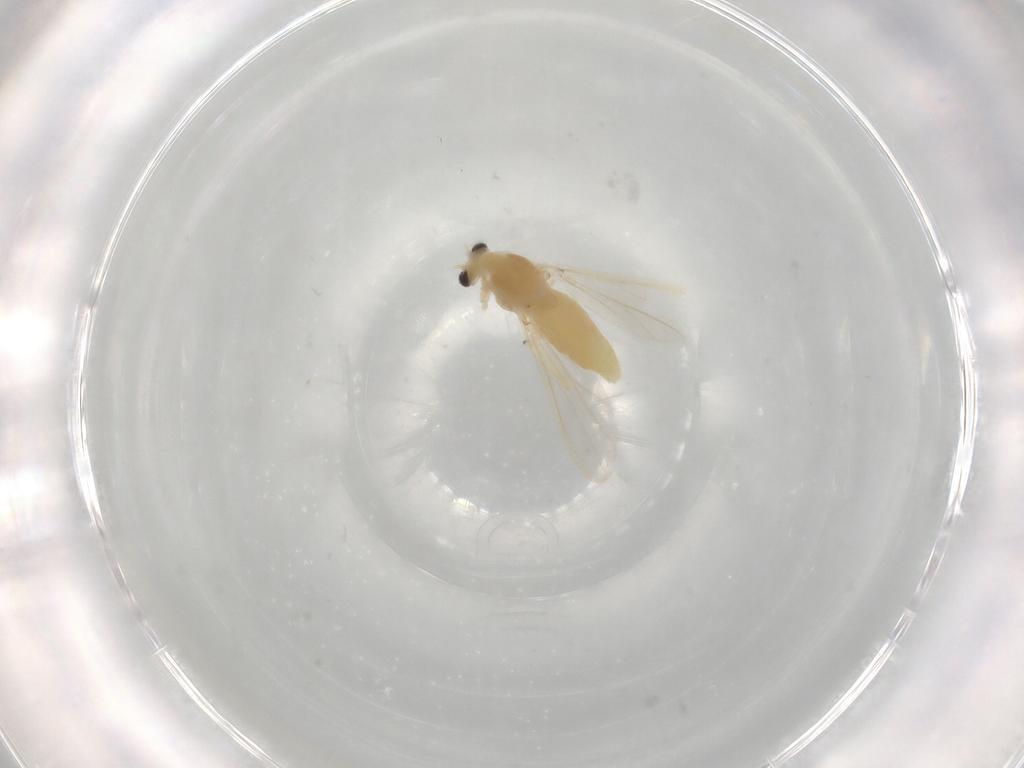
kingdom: Animalia
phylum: Arthropoda
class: Insecta
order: Diptera
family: Chironomidae
